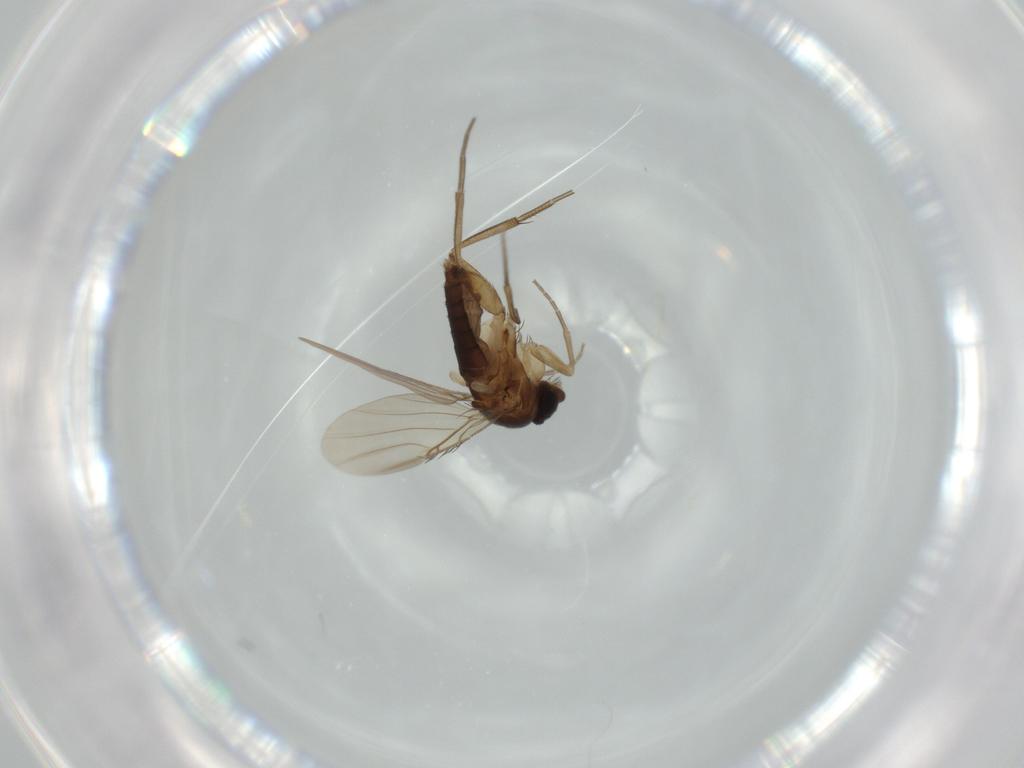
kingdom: Animalia
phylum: Arthropoda
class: Insecta
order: Diptera
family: Phoridae
